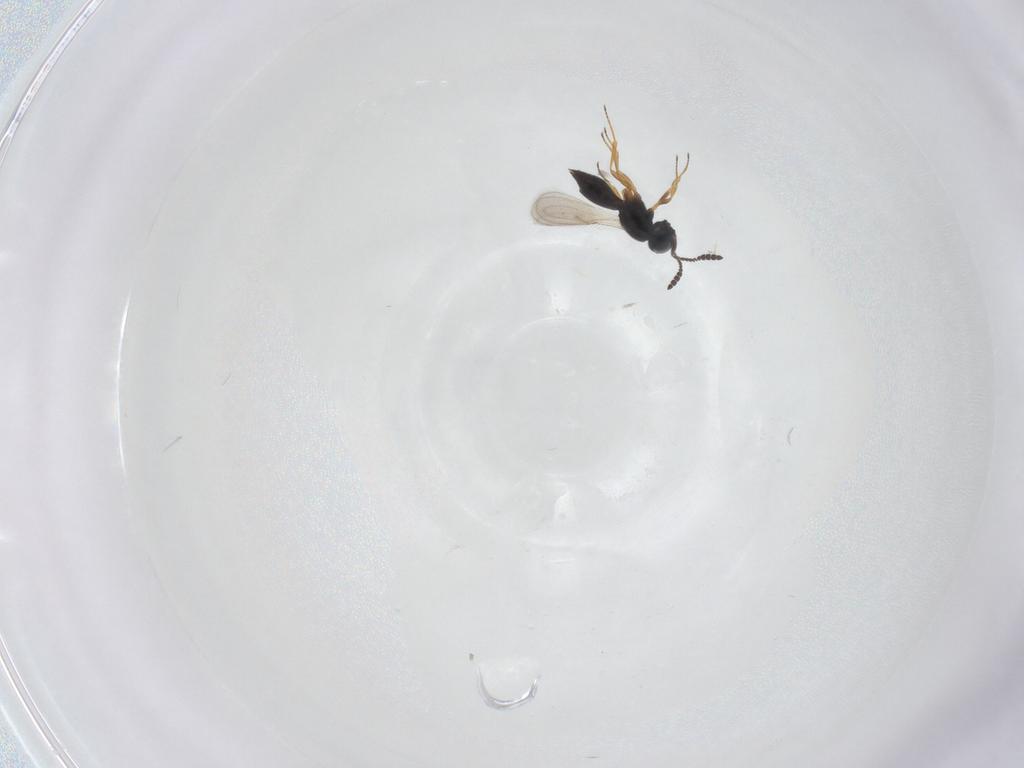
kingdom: Animalia
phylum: Arthropoda
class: Insecta
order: Hymenoptera
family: Scelionidae
